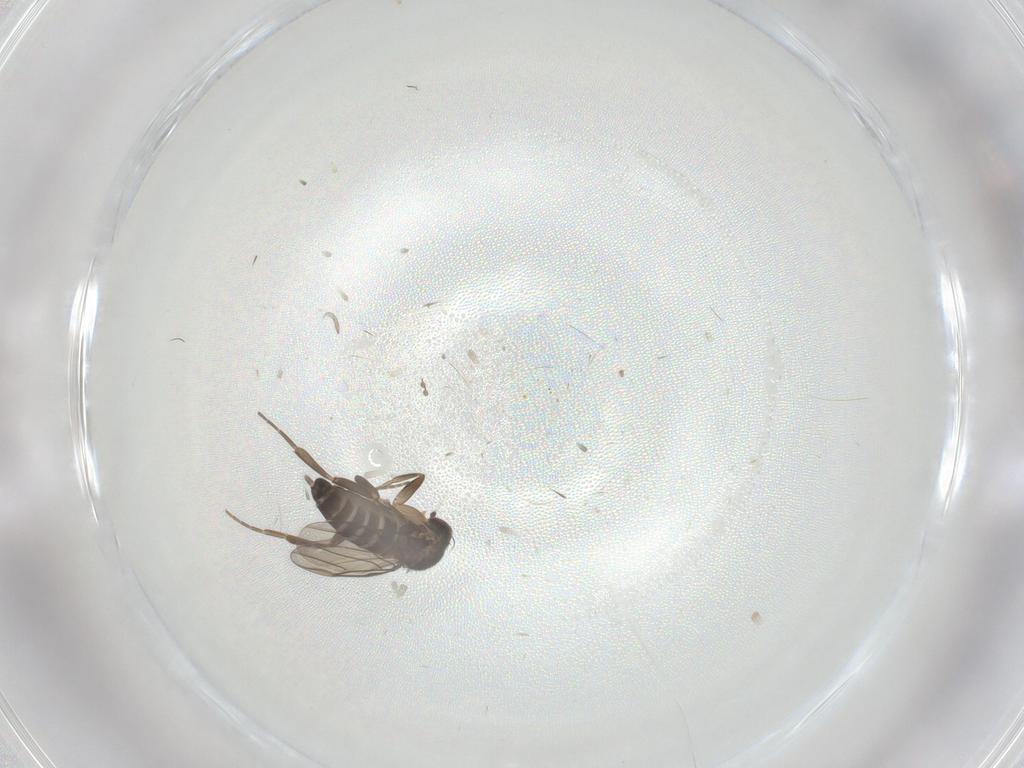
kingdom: Animalia
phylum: Arthropoda
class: Insecta
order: Diptera
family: Phoridae
